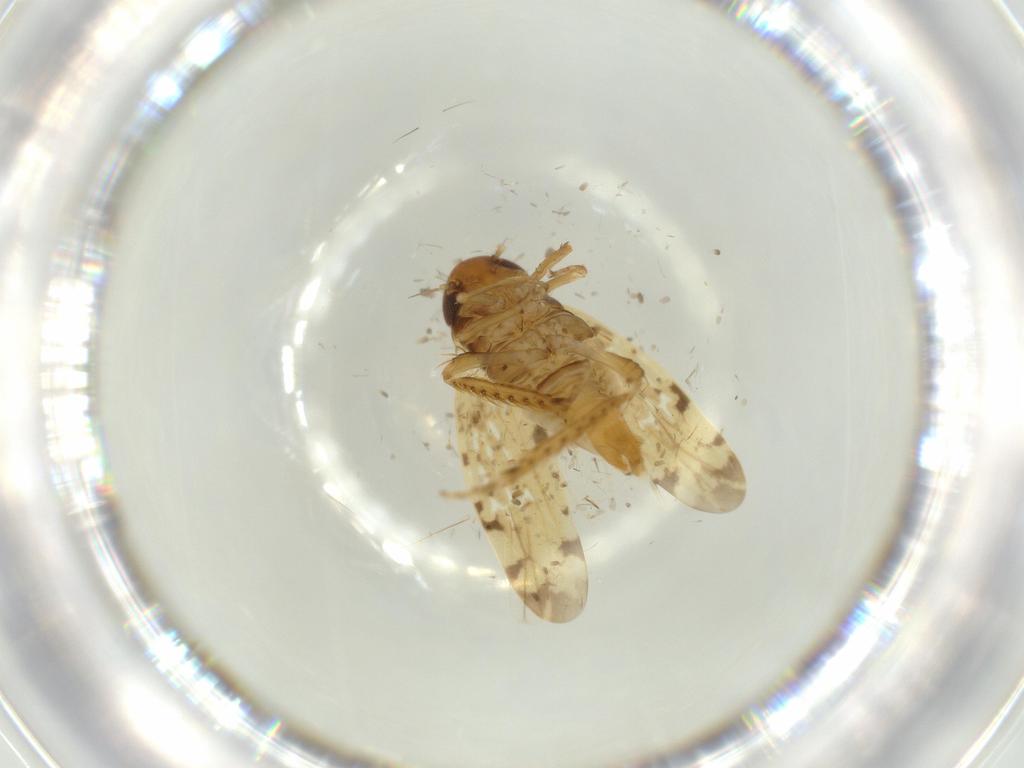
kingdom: Animalia
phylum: Arthropoda
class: Insecta
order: Hemiptera
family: Cicadellidae
